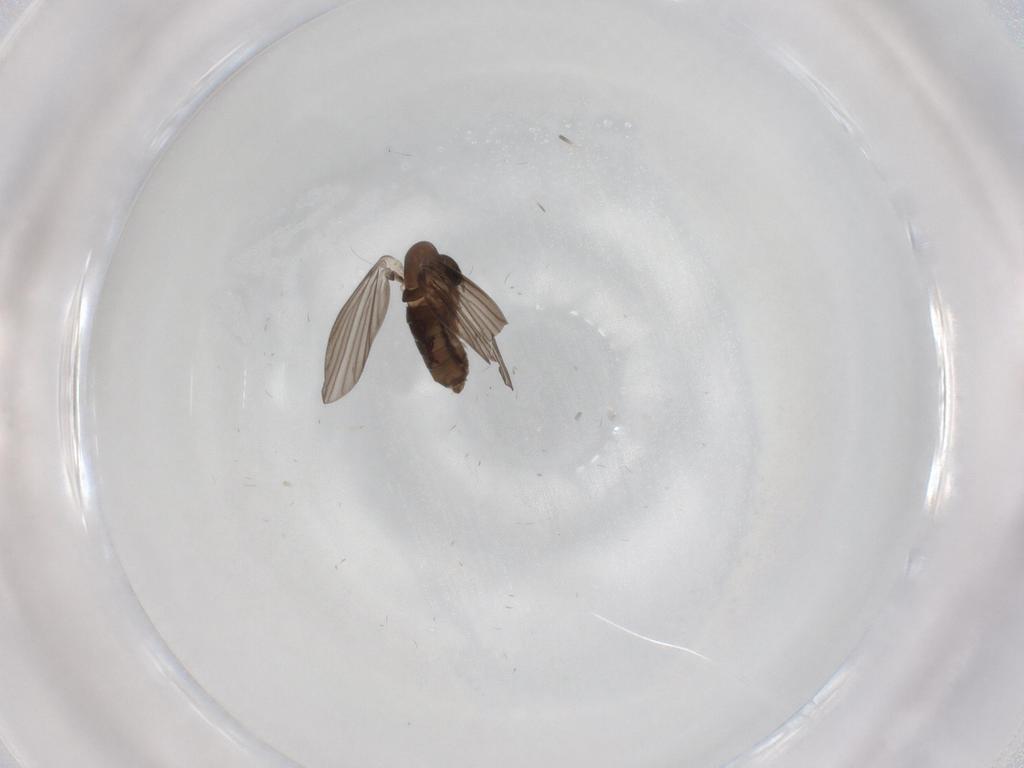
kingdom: Animalia
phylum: Arthropoda
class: Insecta
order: Diptera
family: Psychodidae
